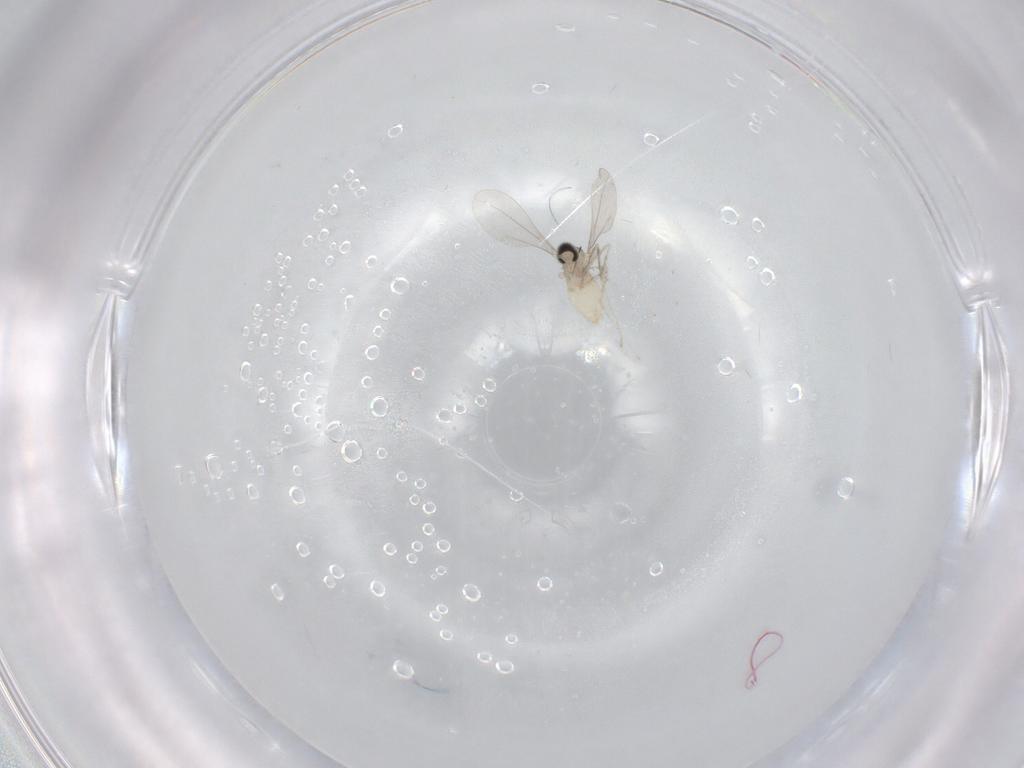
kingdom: Animalia
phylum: Arthropoda
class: Insecta
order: Diptera
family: Cecidomyiidae
